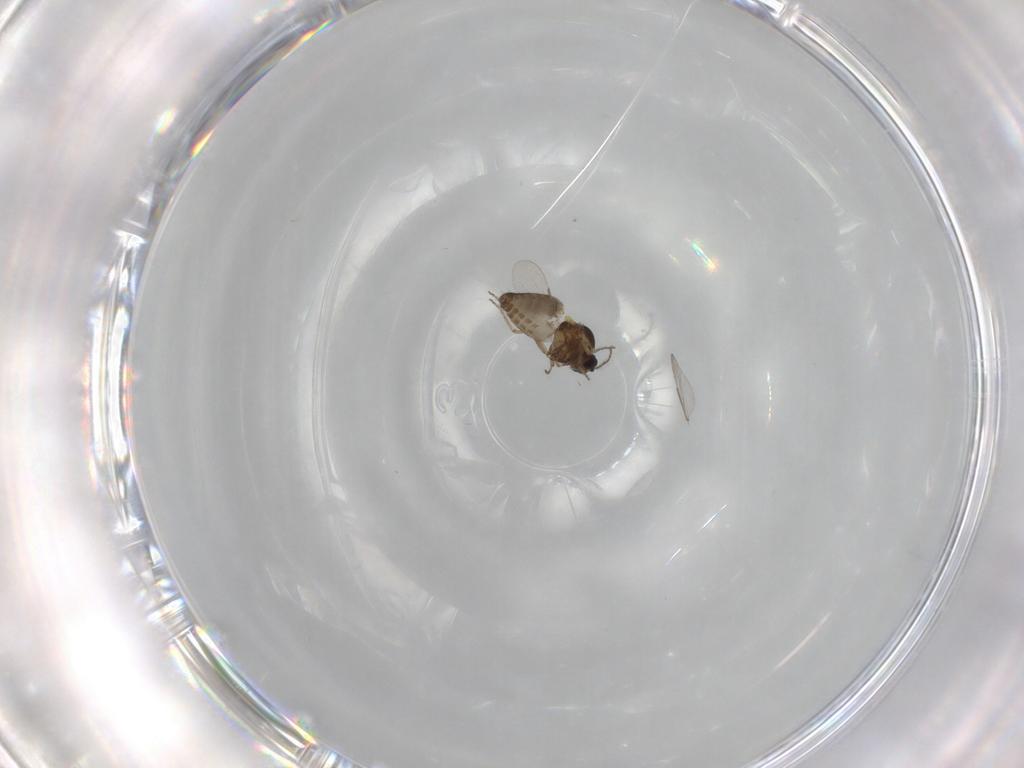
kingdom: Animalia
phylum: Arthropoda
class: Insecta
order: Diptera
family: Ceratopogonidae
